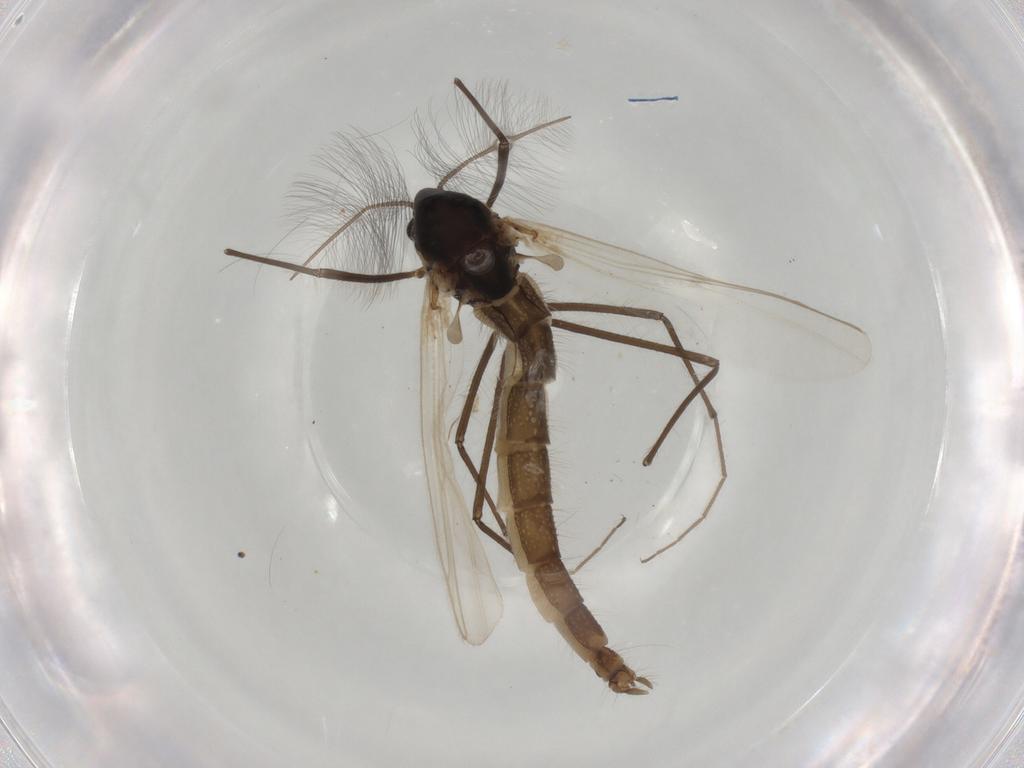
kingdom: Animalia
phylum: Arthropoda
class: Insecta
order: Diptera
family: Chironomidae
